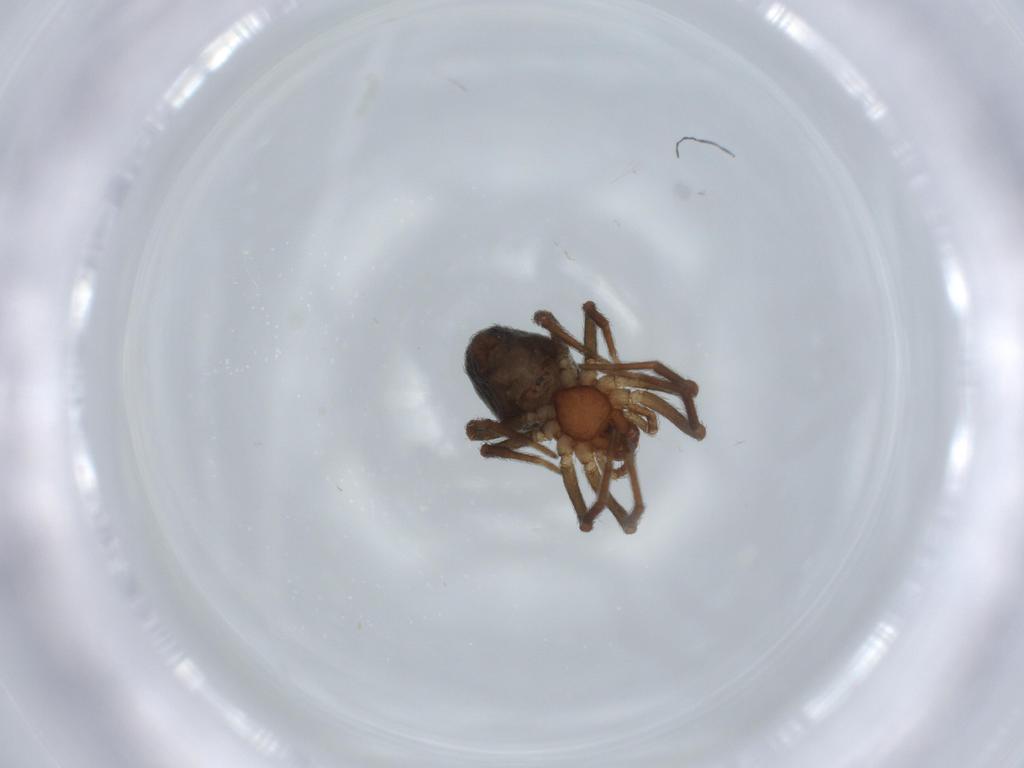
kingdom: Animalia
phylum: Arthropoda
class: Arachnida
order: Araneae
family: Dictynidae
